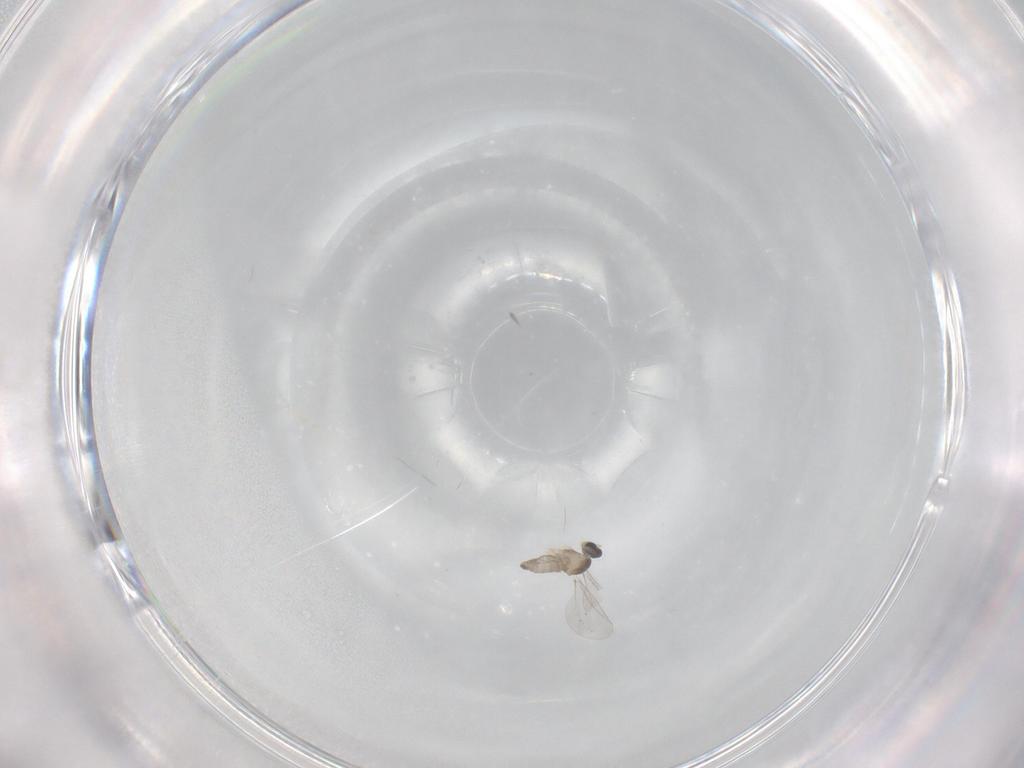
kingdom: Animalia
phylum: Arthropoda
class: Insecta
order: Diptera
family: Cecidomyiidae
